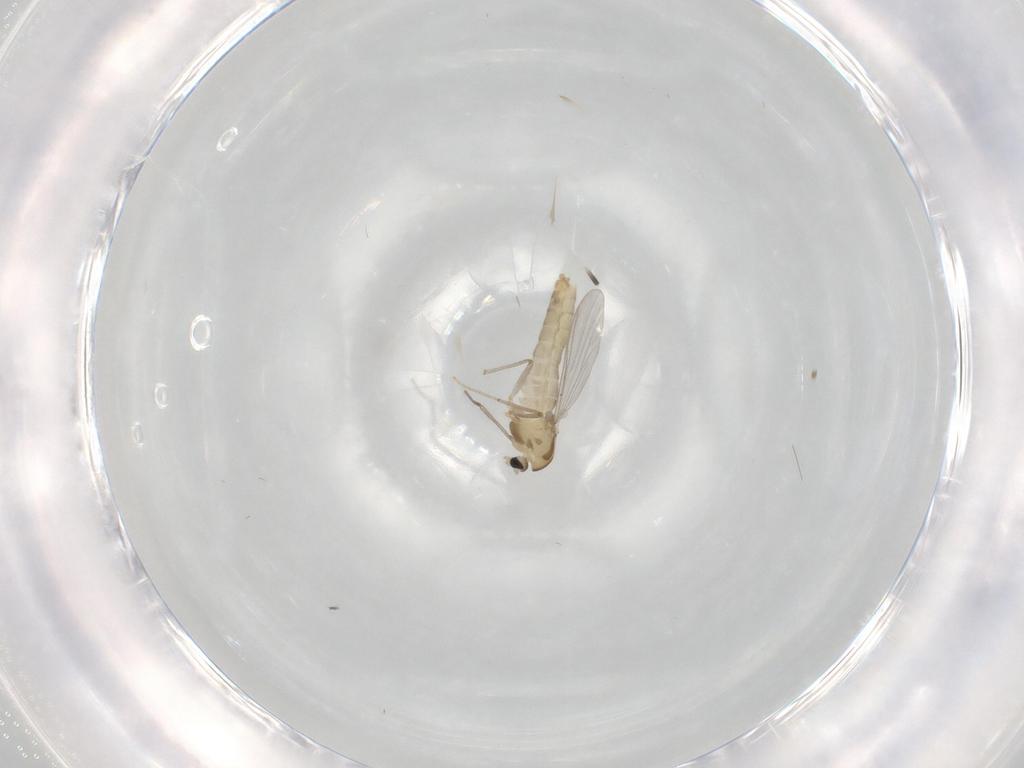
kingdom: Animalia
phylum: Arthropoda
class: Insecta
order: Diptera
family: Chironomidae
